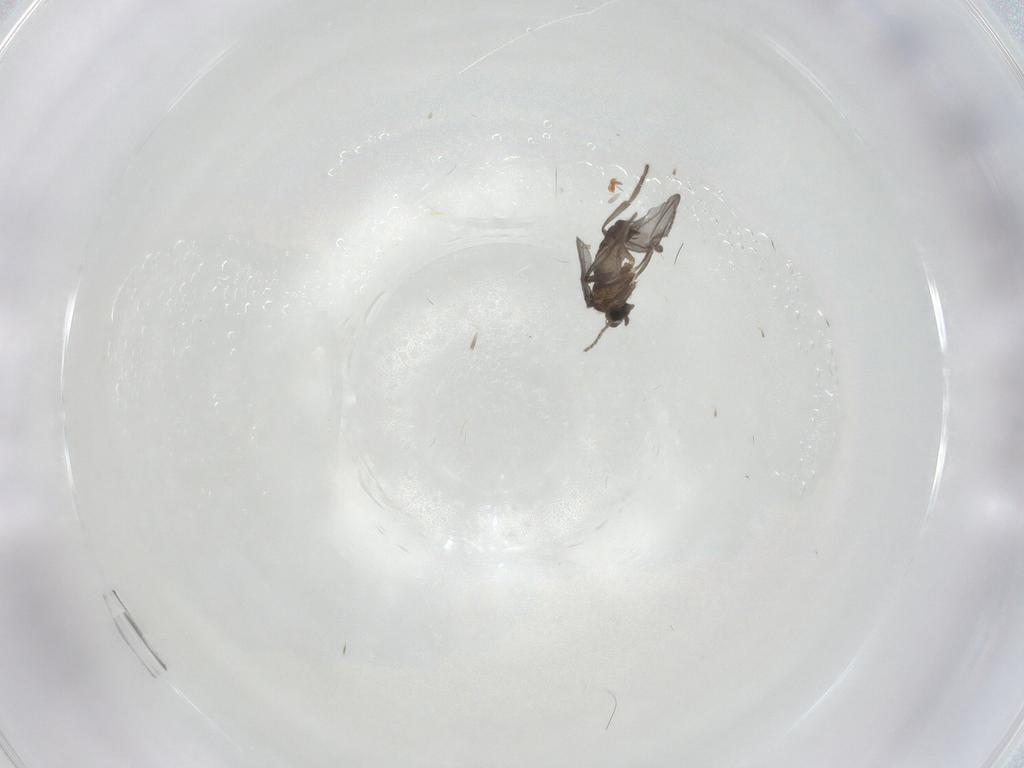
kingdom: Animalia
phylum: Arthropoda
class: Insecta
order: Diptera
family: Phoridae
